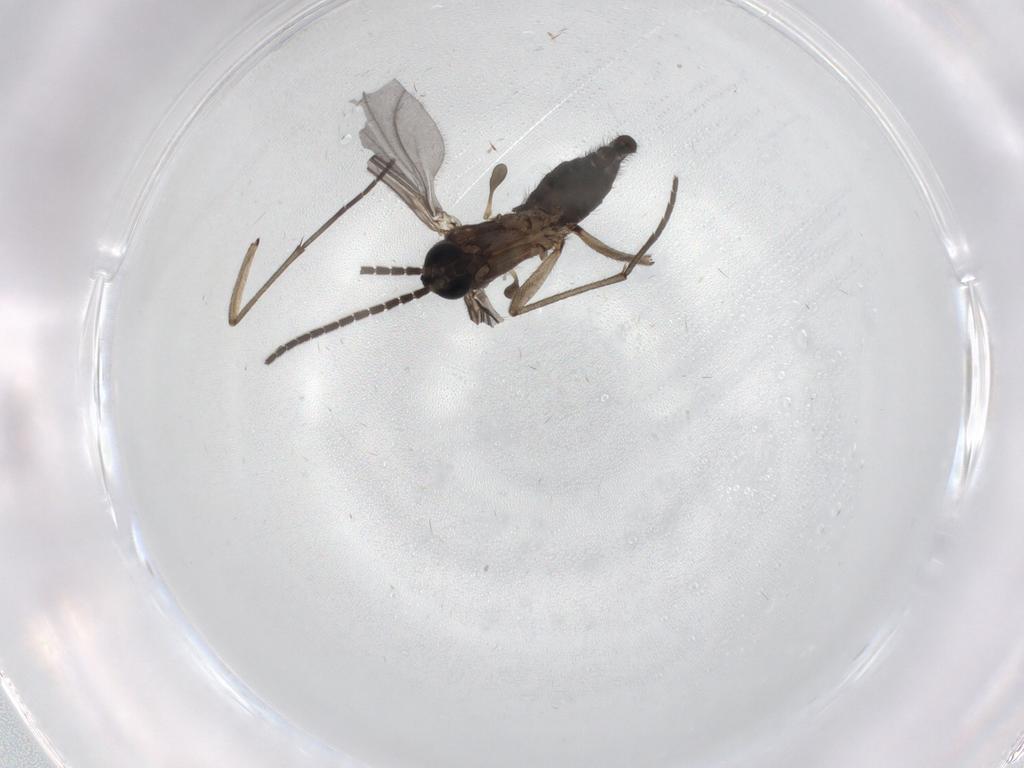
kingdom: Animalia
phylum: Arthropoda
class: Insecta
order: Diptera
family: Sciaridae
